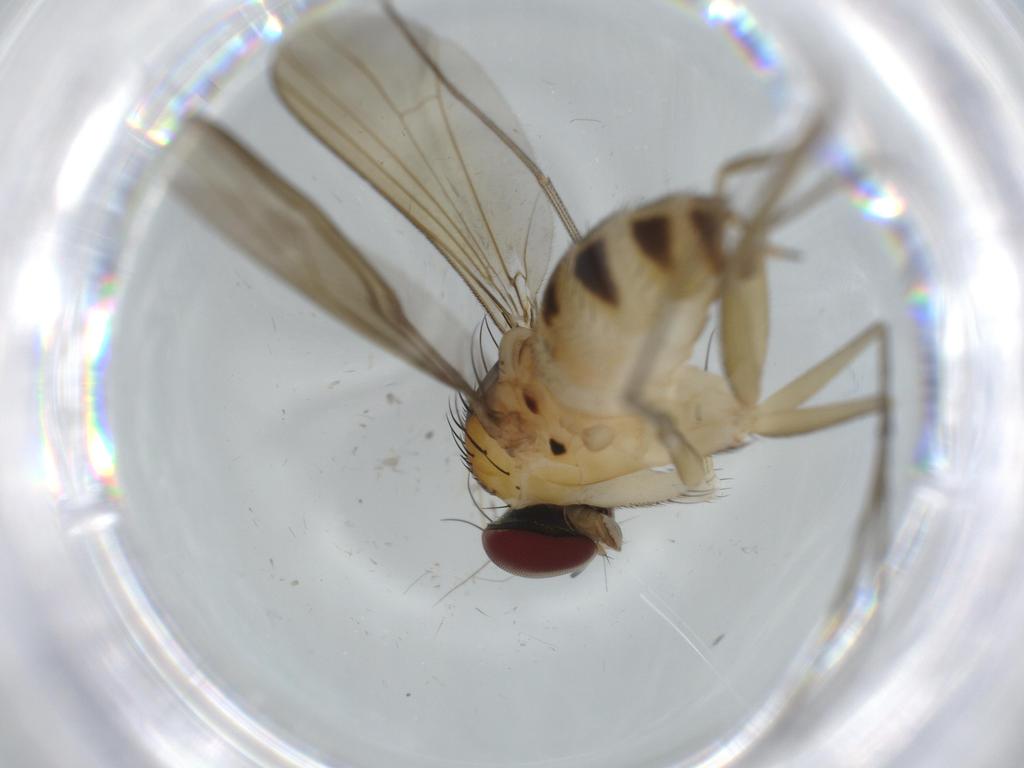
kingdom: Animalia
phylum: Arthropoda
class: Insecta
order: Diptera
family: Dolichopodidae
